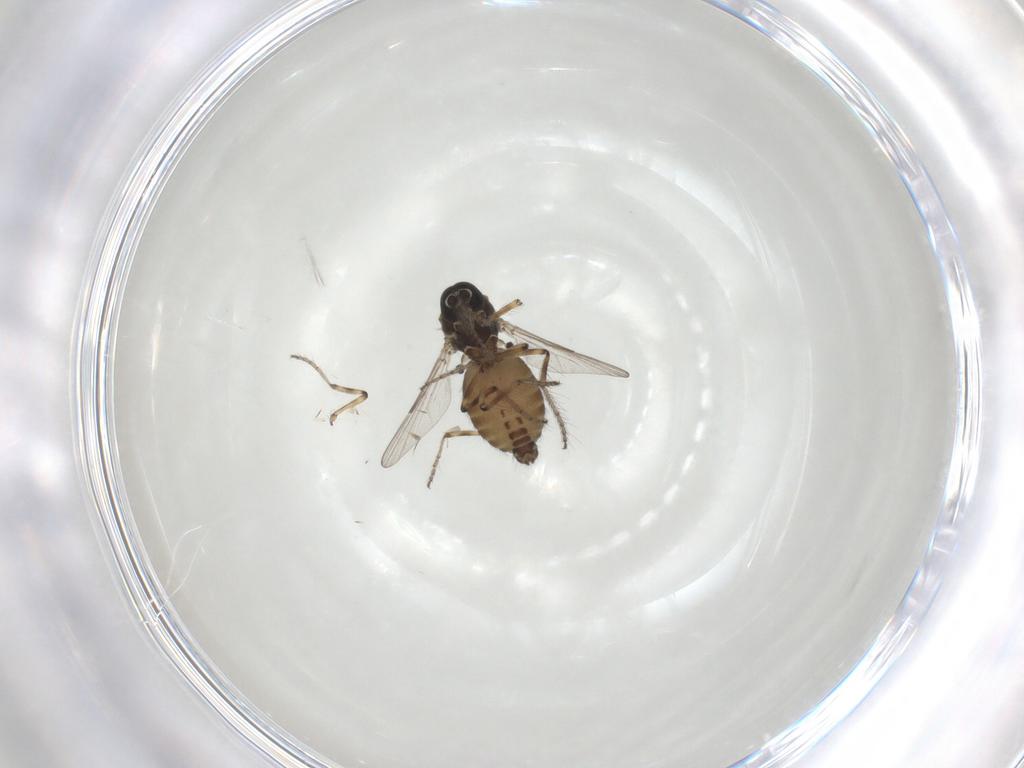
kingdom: Animalia
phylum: Arthropoda
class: Insecta
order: Diptera
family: Ceratopogonidae
